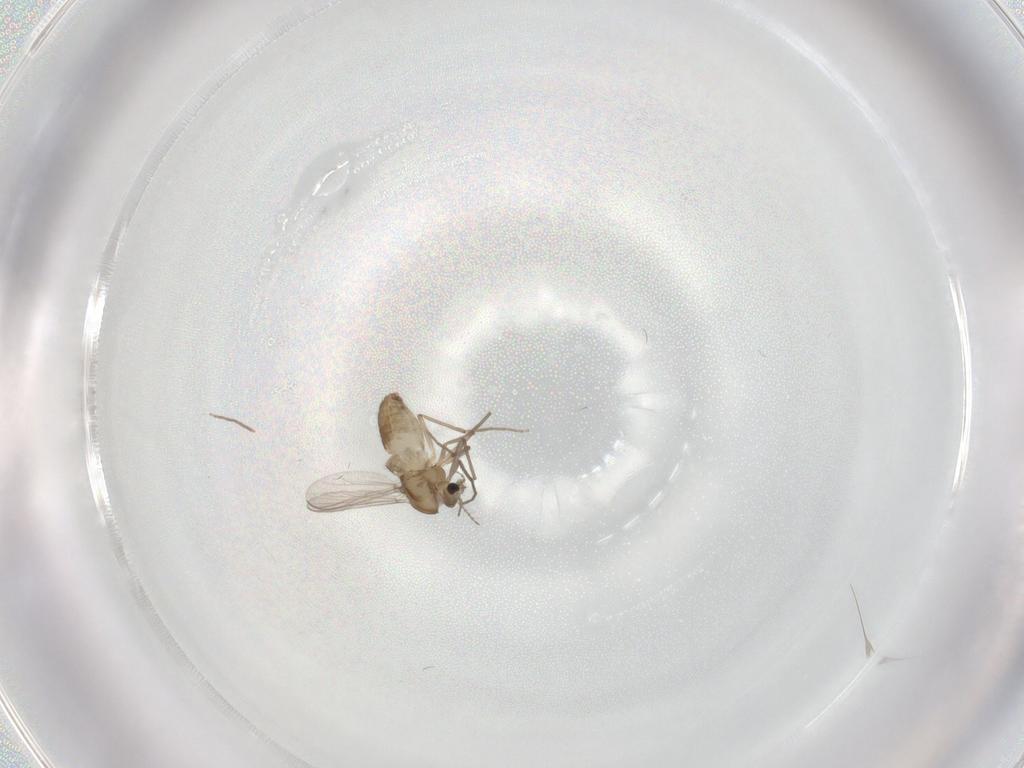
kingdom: Animalia
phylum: Arthropoda
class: Insecta
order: Diptera
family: Chironomidae
